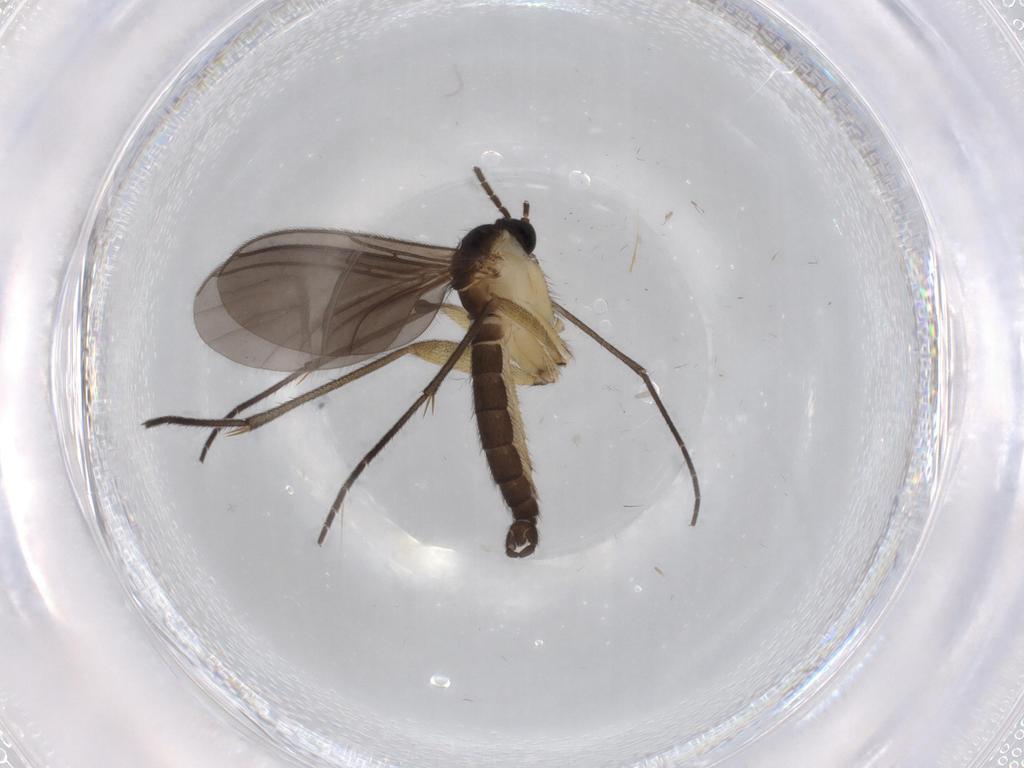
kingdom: Animalia
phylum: Arthropoda
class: Insecta
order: Diptera
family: Sciaridae
